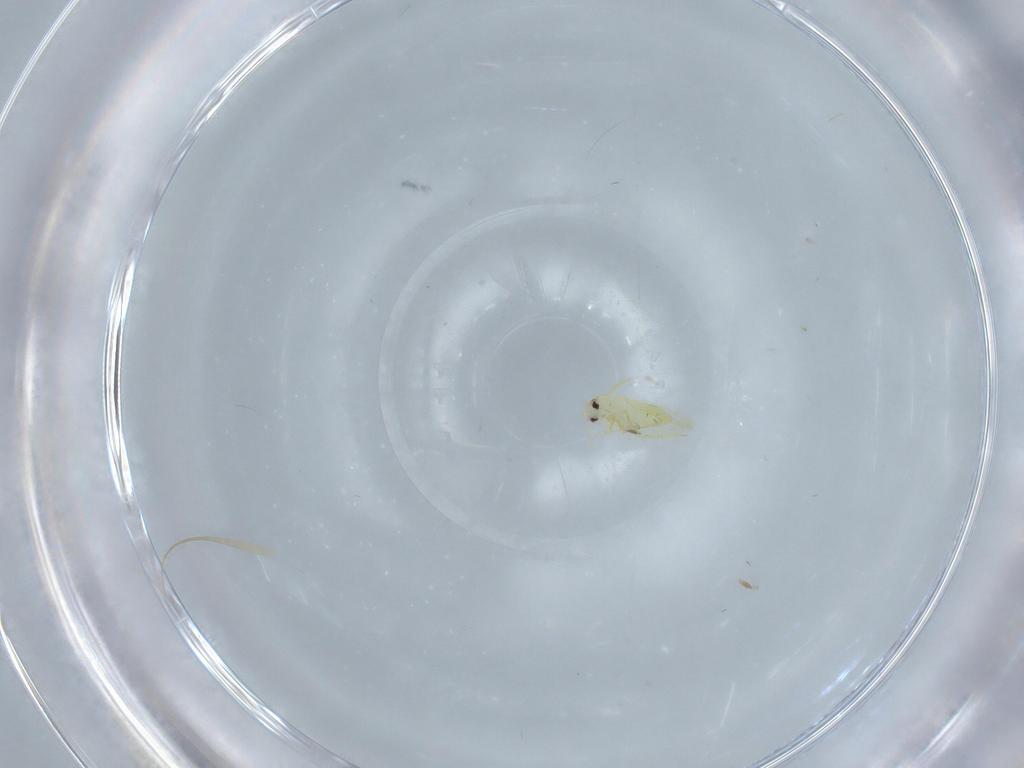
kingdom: Animalia
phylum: Arthropoda
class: Insecta
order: Hemiptera
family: Aleyrodidae
